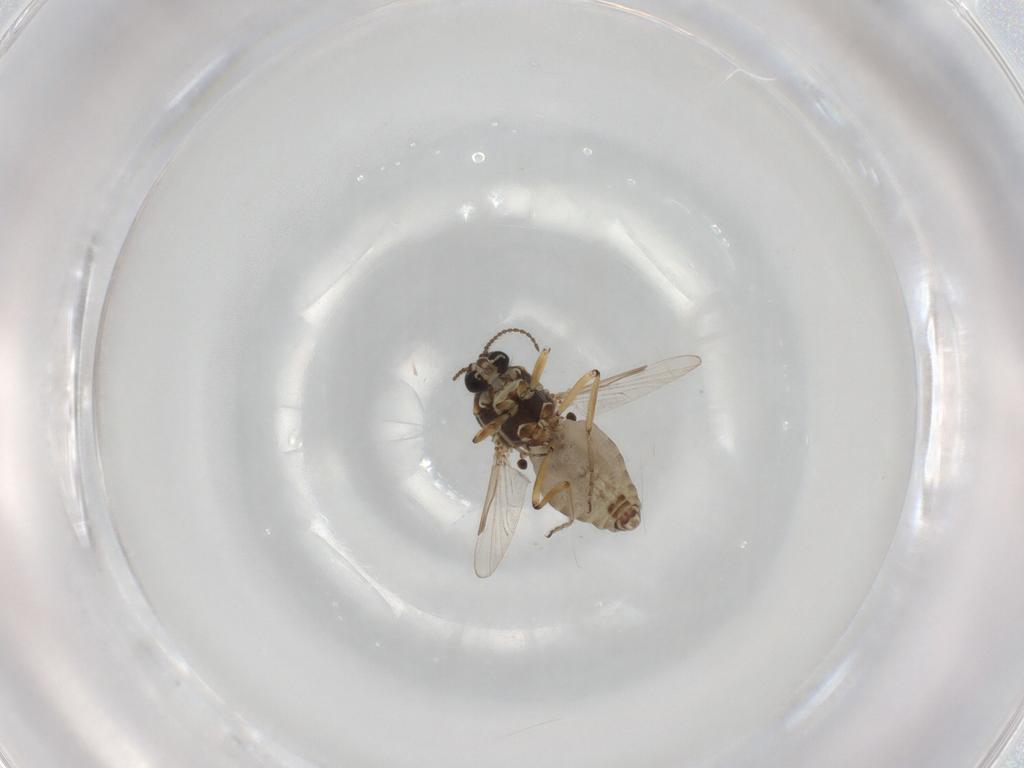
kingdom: Animalia
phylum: Arthropoda
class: Insecta
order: Diptera
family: Ceratopogonidae
